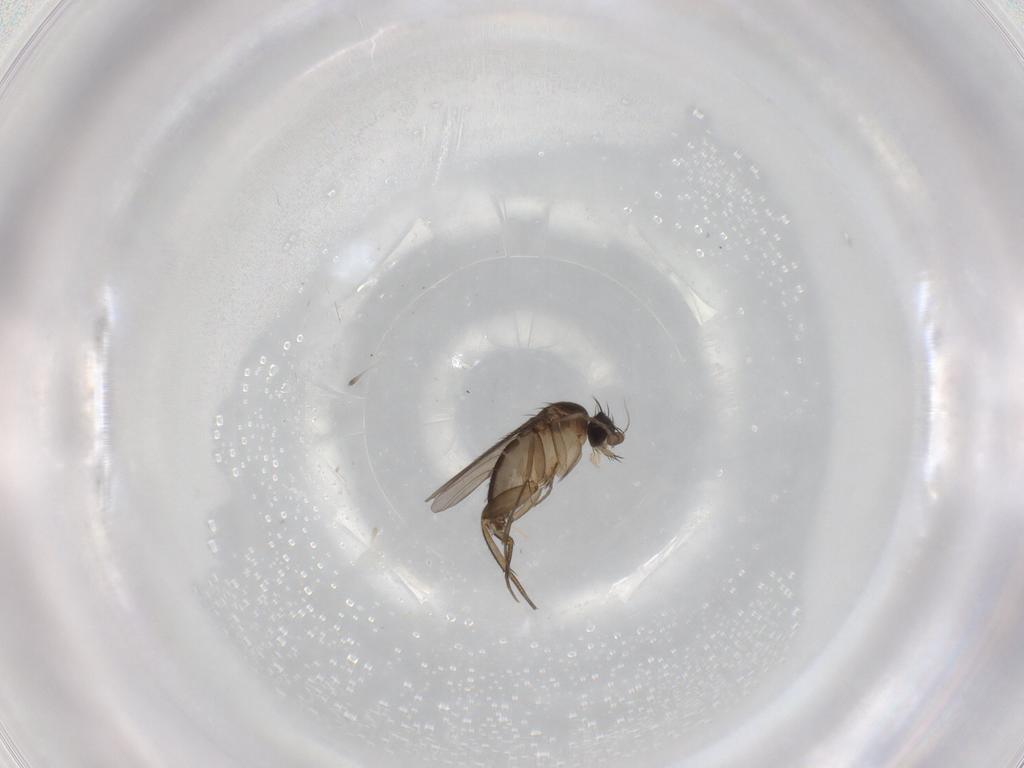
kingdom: Animalia
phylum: Arthropoda
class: Insecta
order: Diptera
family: Phoridae
